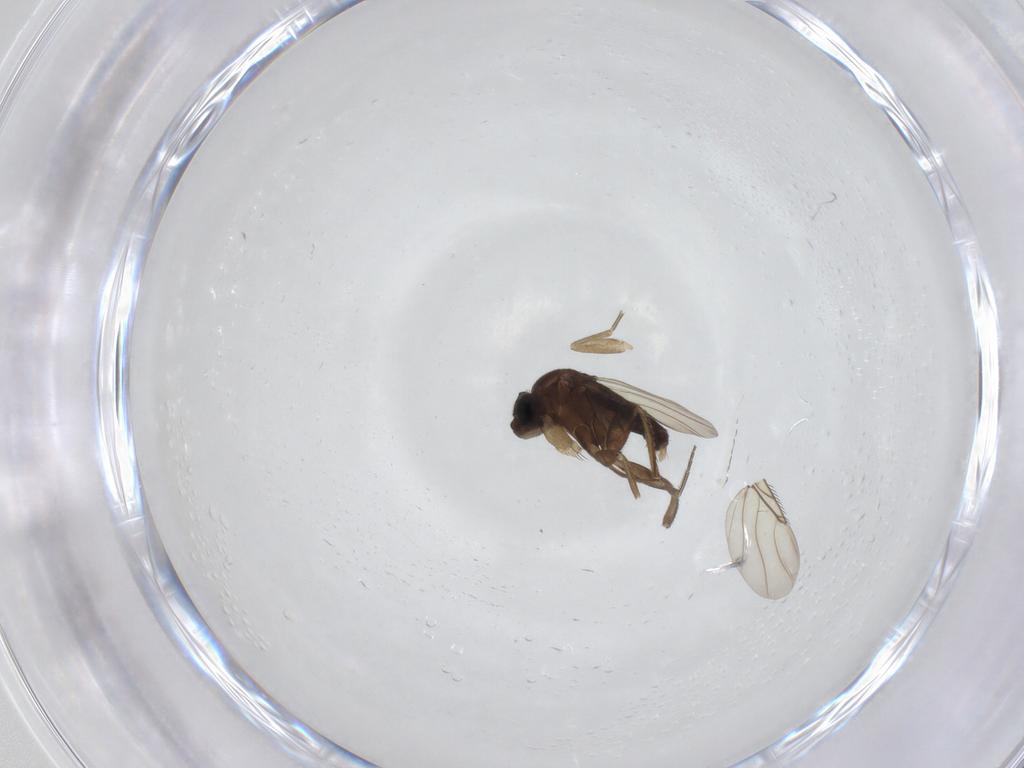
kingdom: Animalia
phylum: Arthropoda
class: Insecta
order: Diptera
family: Phoridae
